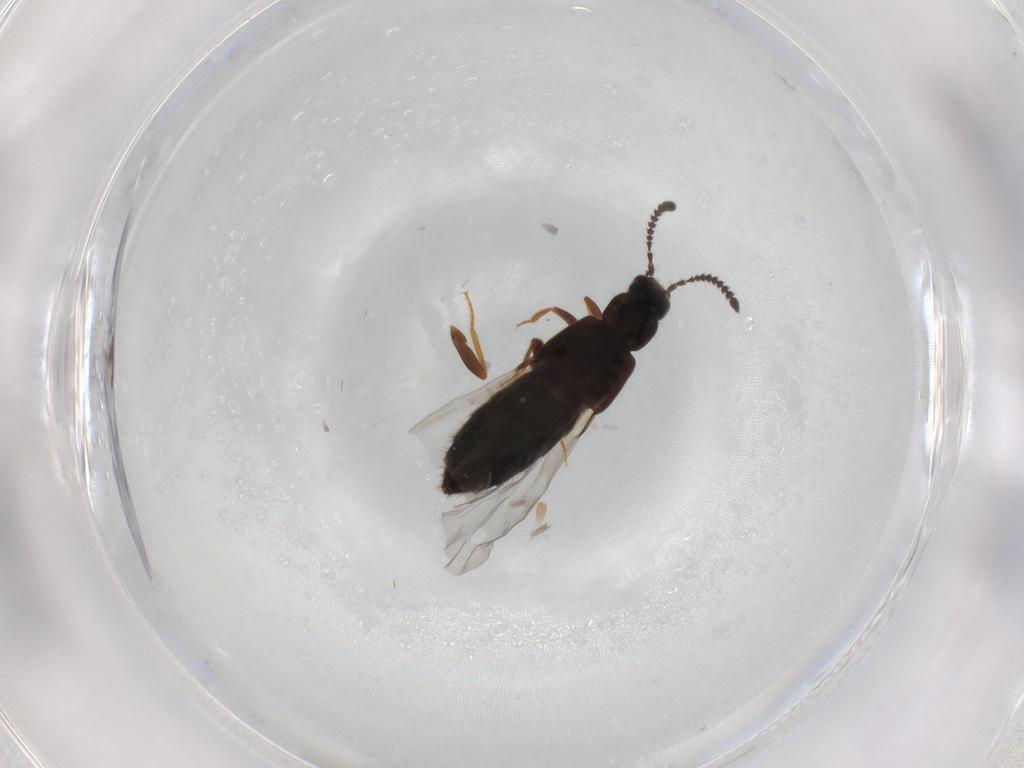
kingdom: Animalia
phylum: Arthropoda
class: Insecta
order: Coleoptera
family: Staphylinidae
